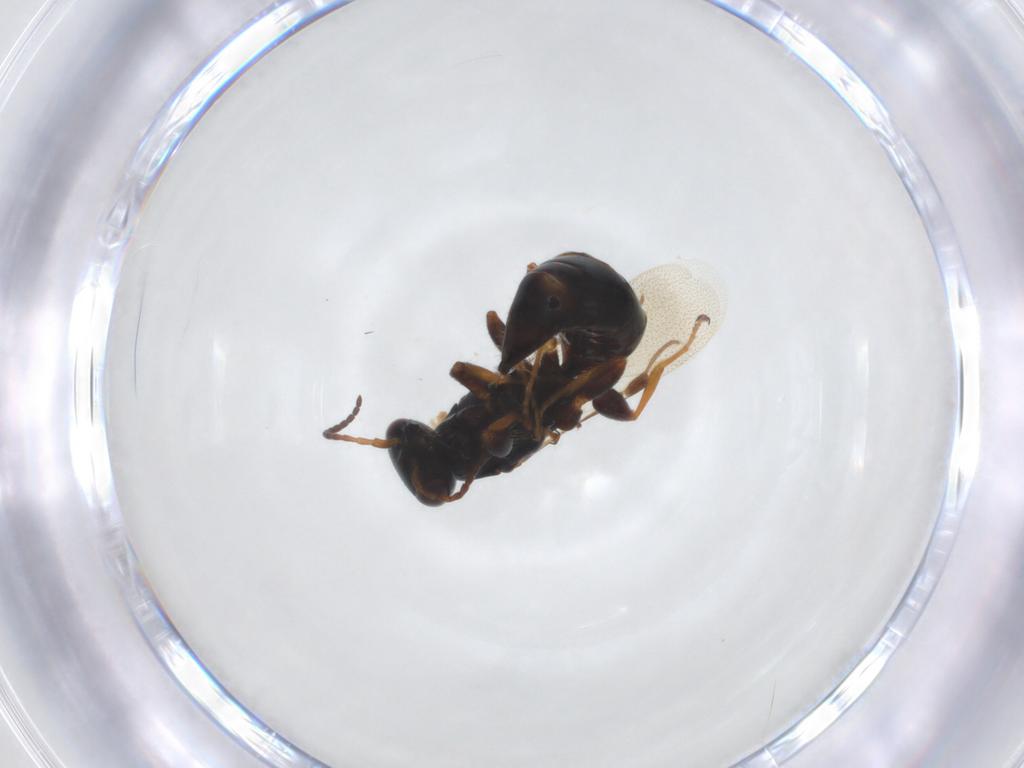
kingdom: Animalia
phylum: Arthropoda
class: Insecta
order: Hymenoptera
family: Bethylidae
